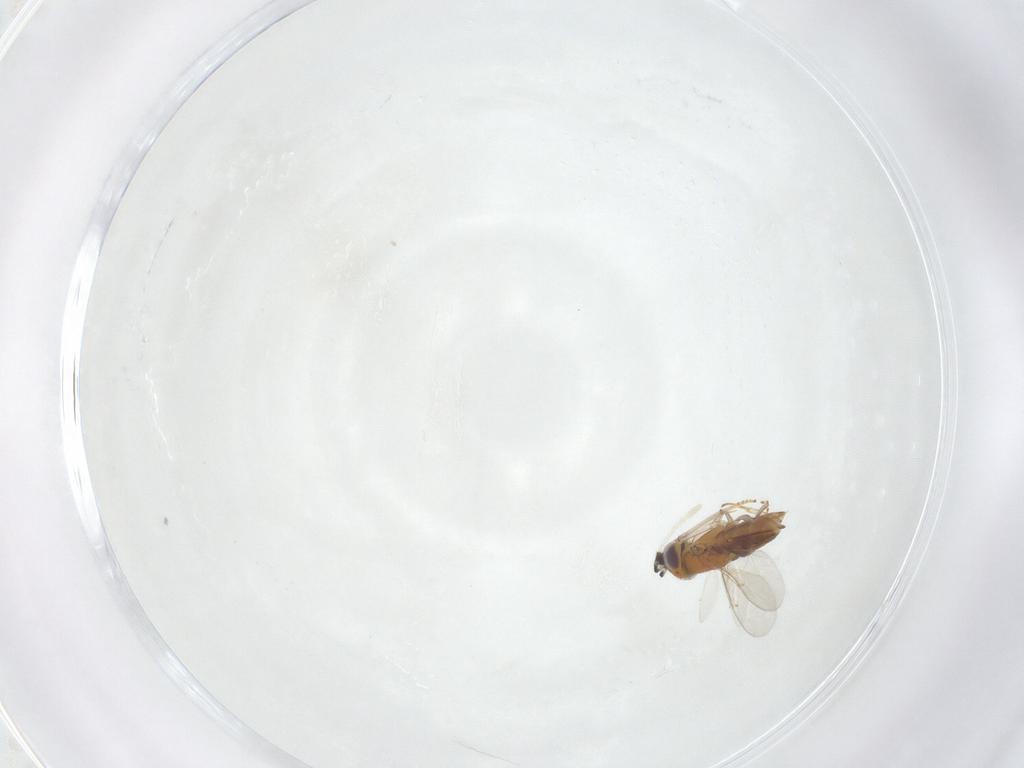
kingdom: Animalia
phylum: Arthropoda
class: Insecta
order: Hymenoptera
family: Encyrtidae
